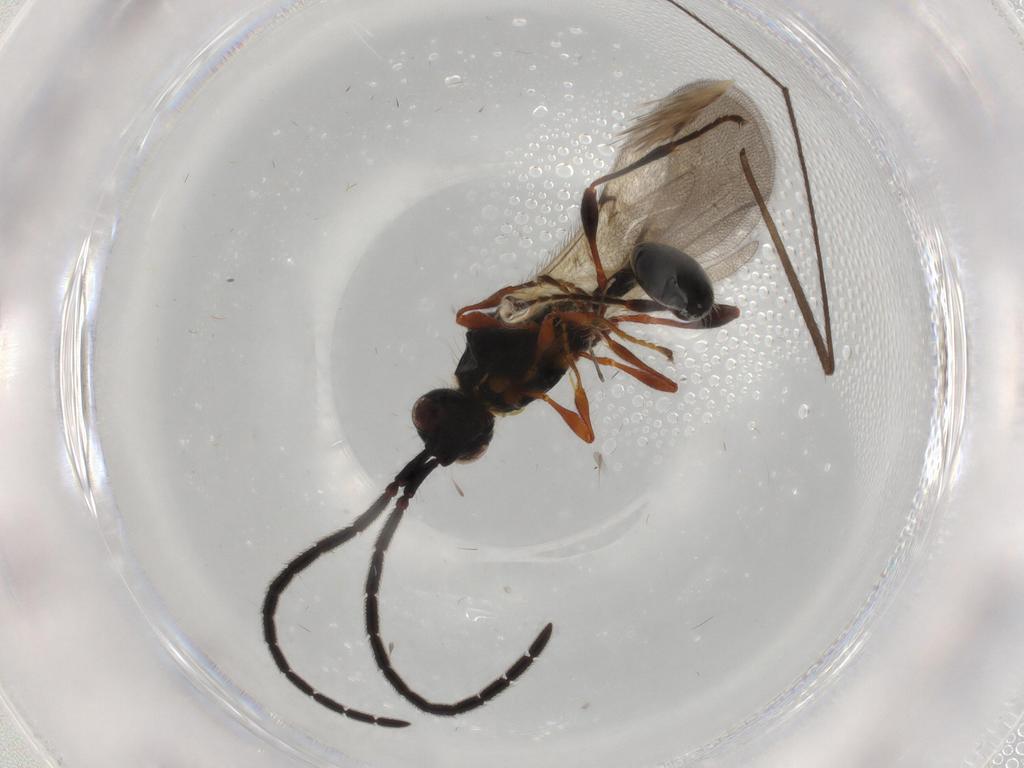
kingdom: Animalia
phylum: Arthropoda
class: Insecta
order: Hymenoptera
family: Diapriidae
